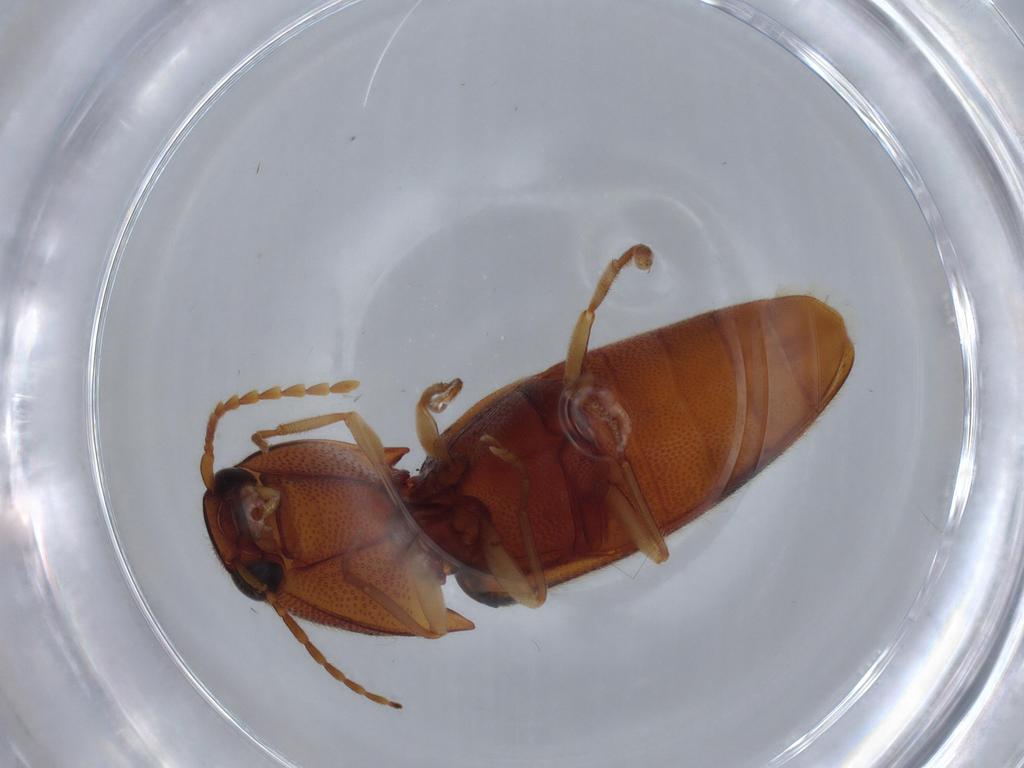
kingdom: Animalia
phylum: Arthropoda
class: Insecta
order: Coleoptera
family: Elateridae
